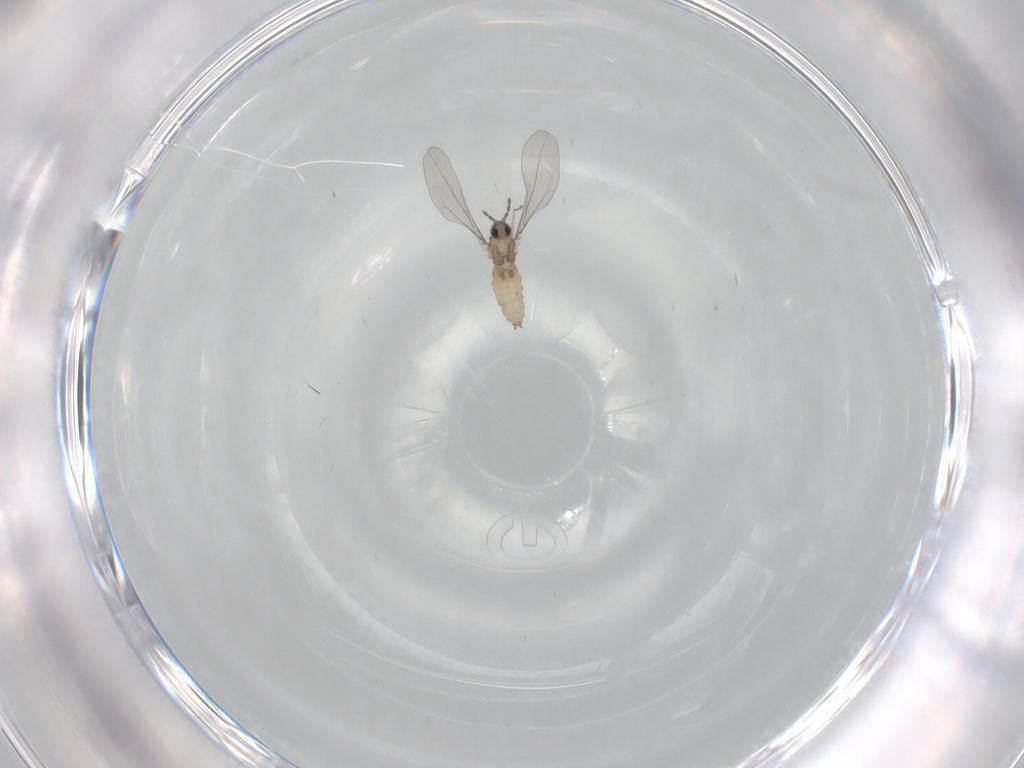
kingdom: Animalia
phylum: Arthropoda
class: Insecta
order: Diptera
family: Cecidomyiidae
